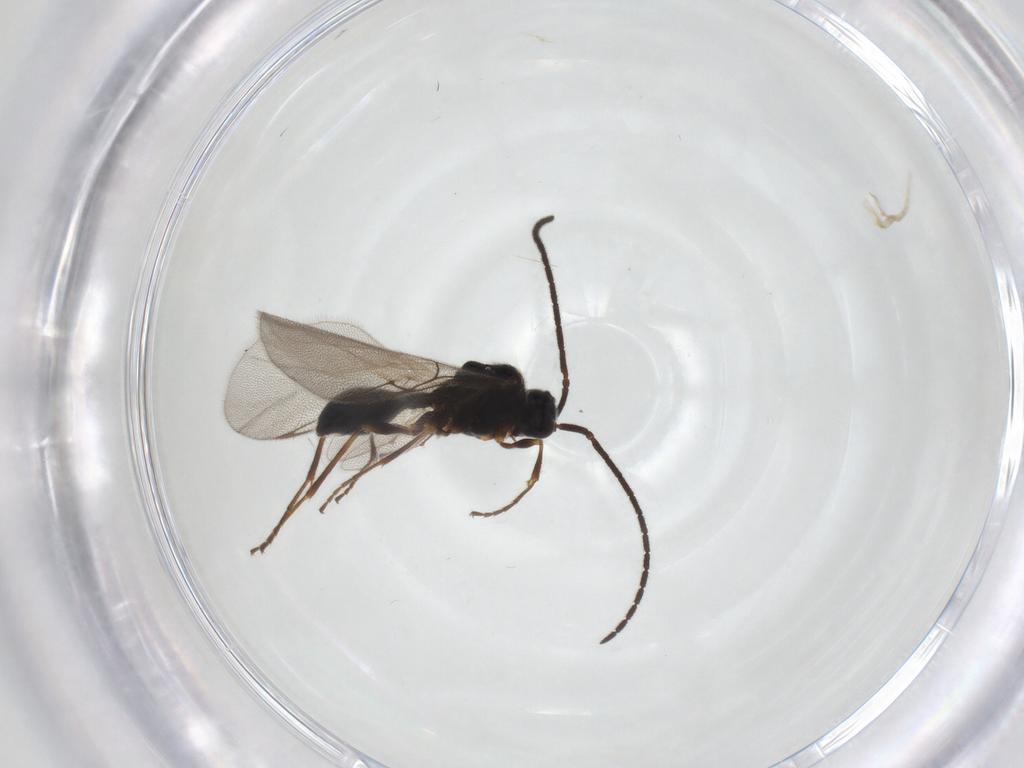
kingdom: Animalia
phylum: Arthropoda
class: Insecta
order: Hymenoptera
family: Diapriidae
